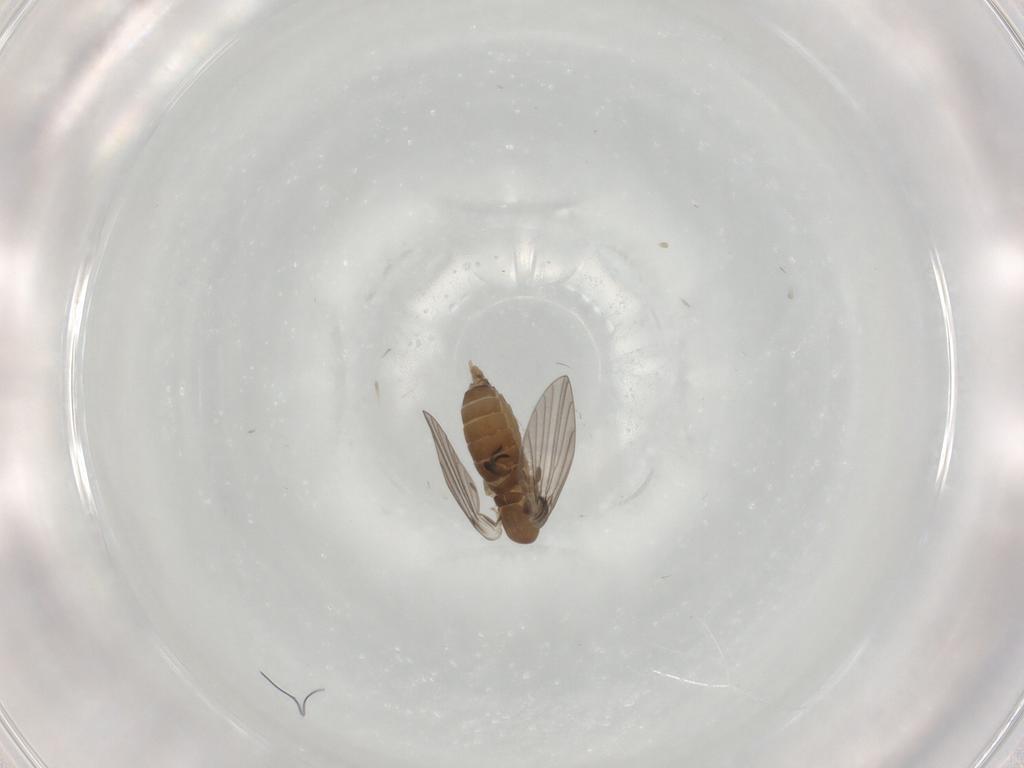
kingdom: Animalia
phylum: Arthropoda
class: Insecta
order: Diptera
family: Cecidomyiidae
